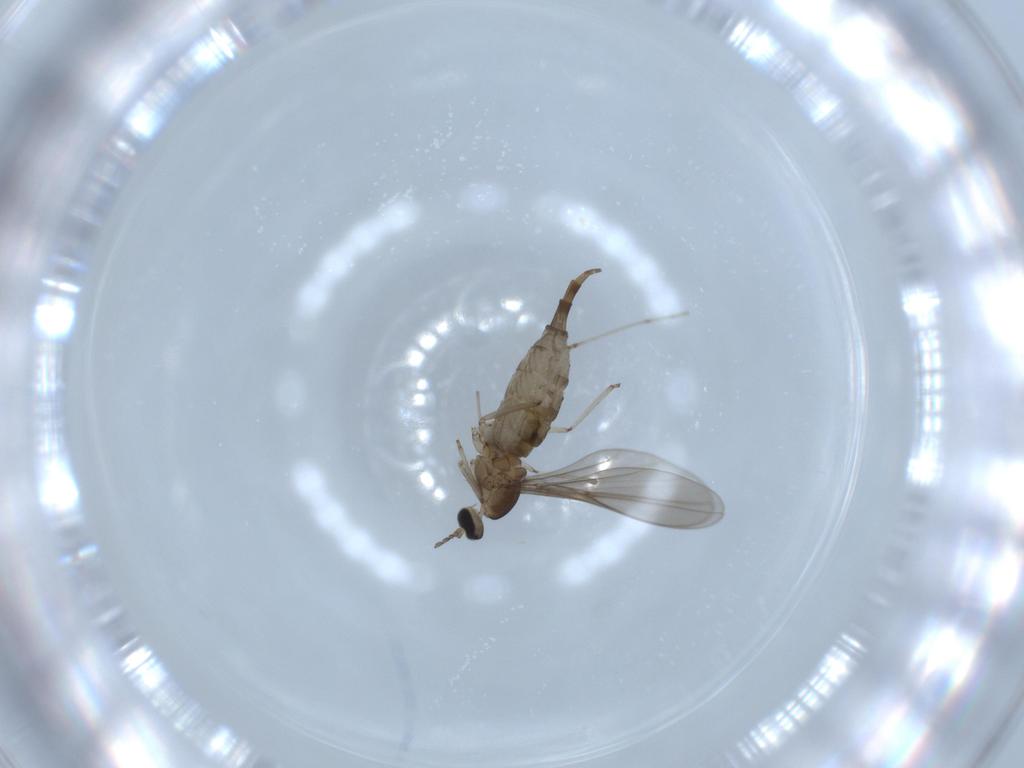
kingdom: Animalia
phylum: Arthropoda
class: Insecta
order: Diptera
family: Cecidomyiidae
